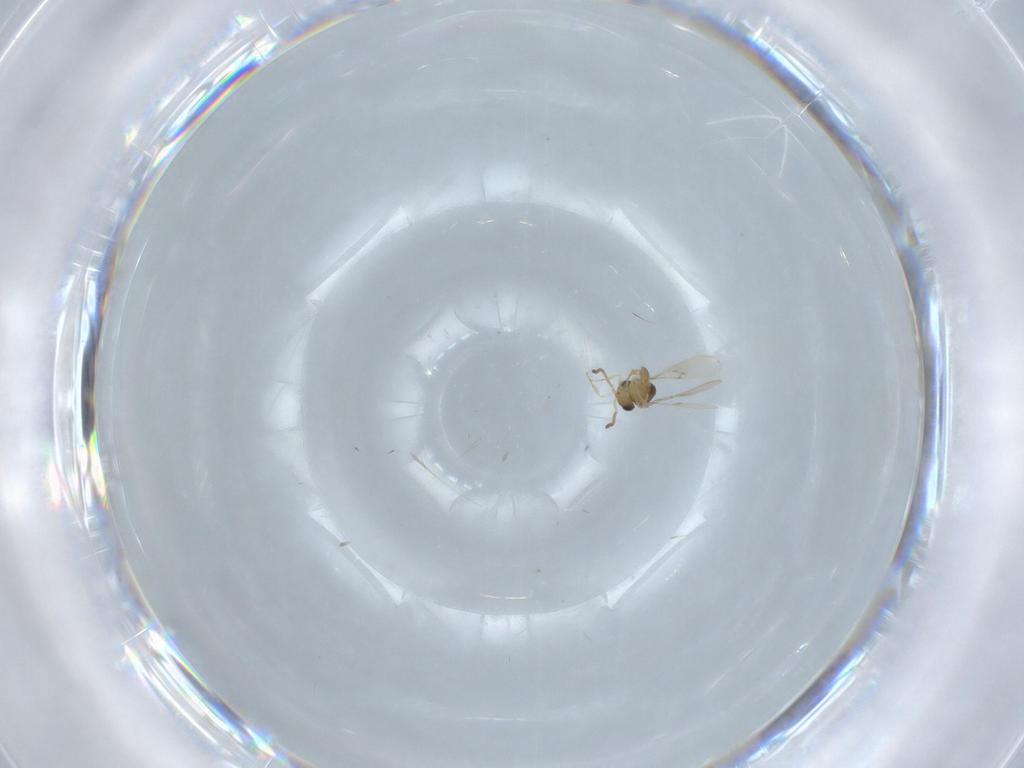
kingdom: Animalia
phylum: Arthropoda
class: Insecta
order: Hymenoptera
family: Scelionidae
